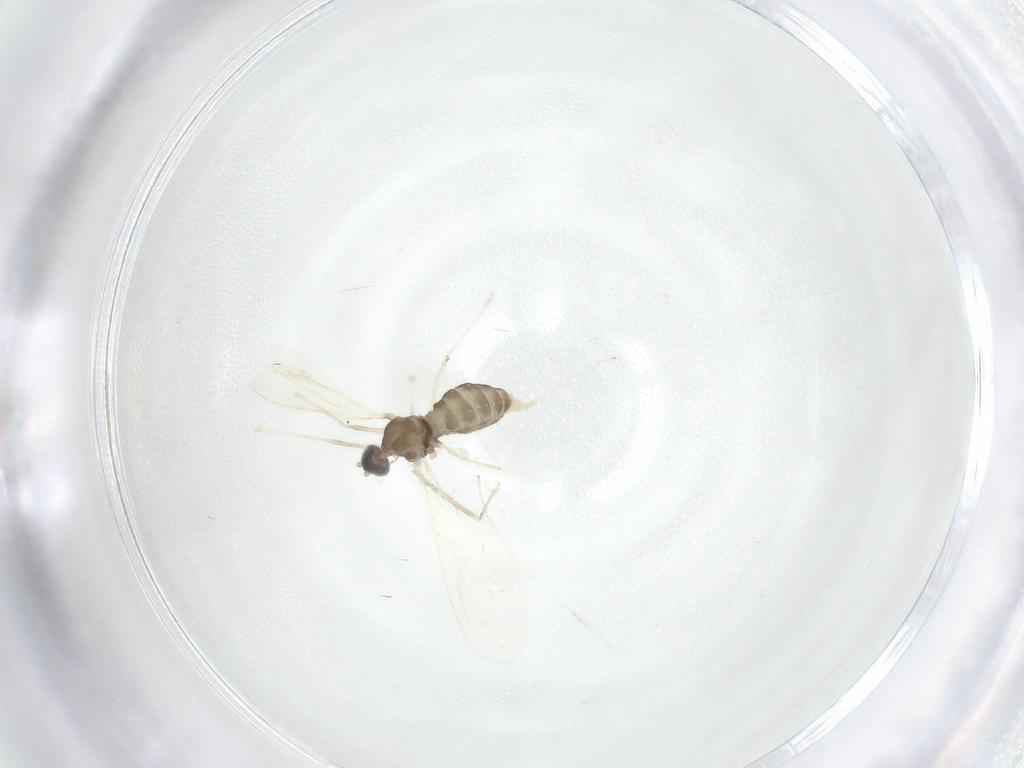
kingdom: Animalia
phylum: Arthropoda
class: Insecta
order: Diptera
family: Cecidomyiidae
